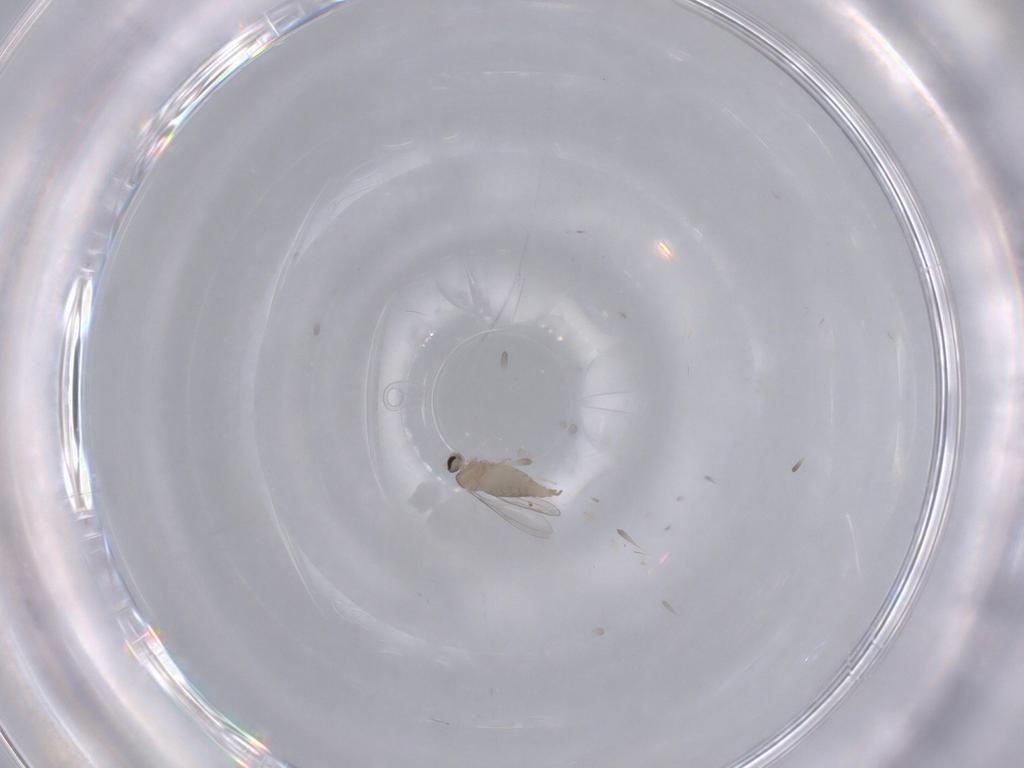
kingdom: Animalia
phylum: Arthropoda
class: Insecta
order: Diptera
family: Cecidomyiidae
